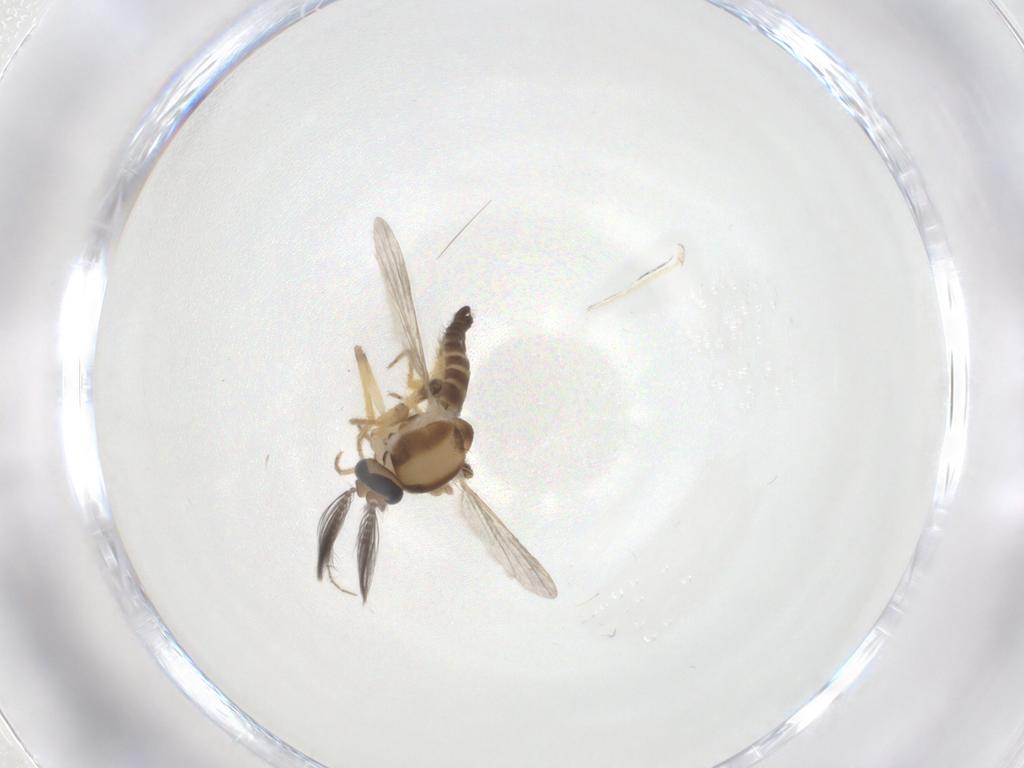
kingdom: Animalia
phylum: Arthropoda
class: Insecta
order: Diptera
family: Ceratopogonidae
